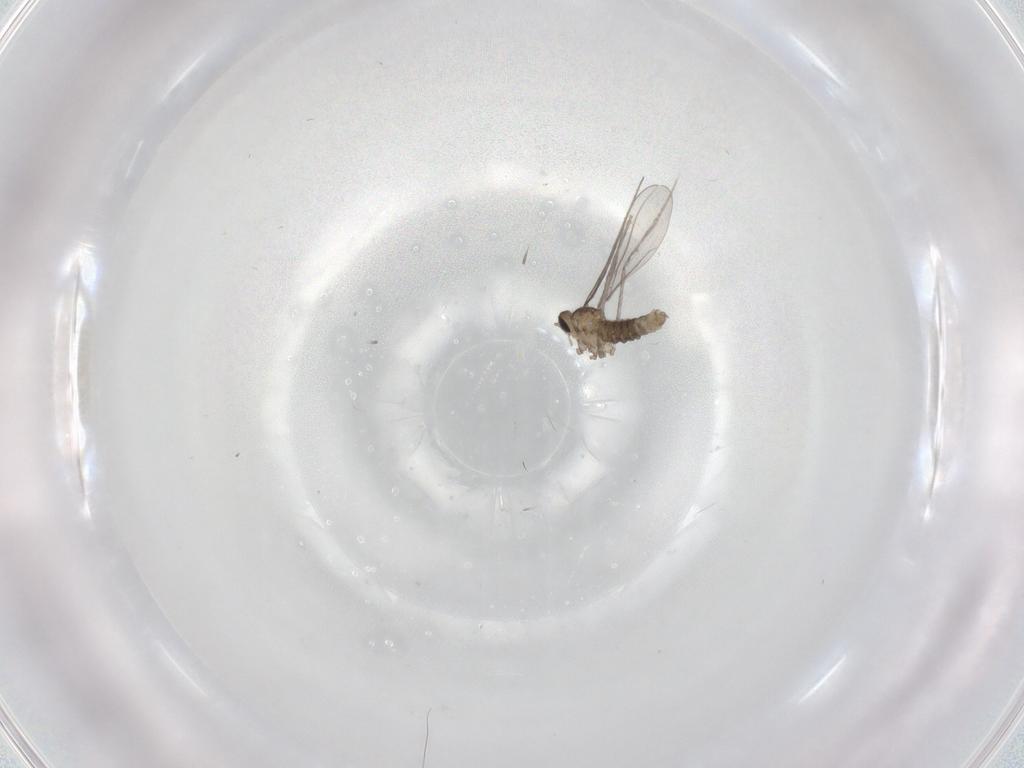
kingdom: Animalia
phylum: Arthropoda
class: Insecta
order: Diptera
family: Cecidomyiidae
